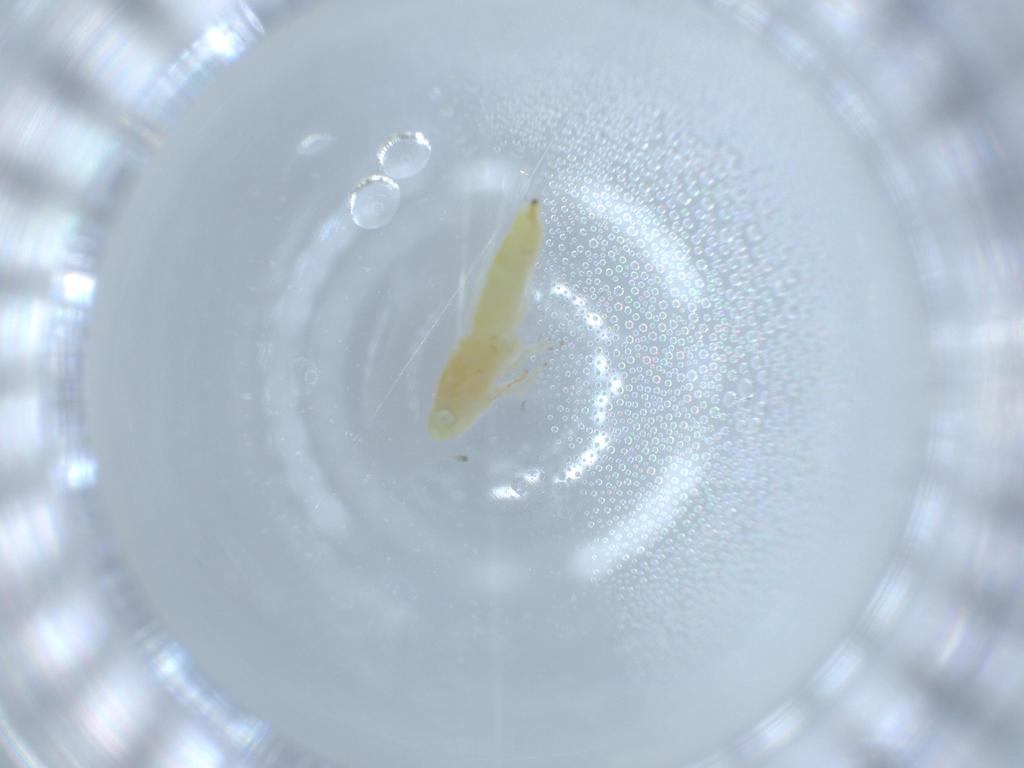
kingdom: Animalia
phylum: Arthropoda
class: Insecta
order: Hemiptera
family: Cicadellidae
